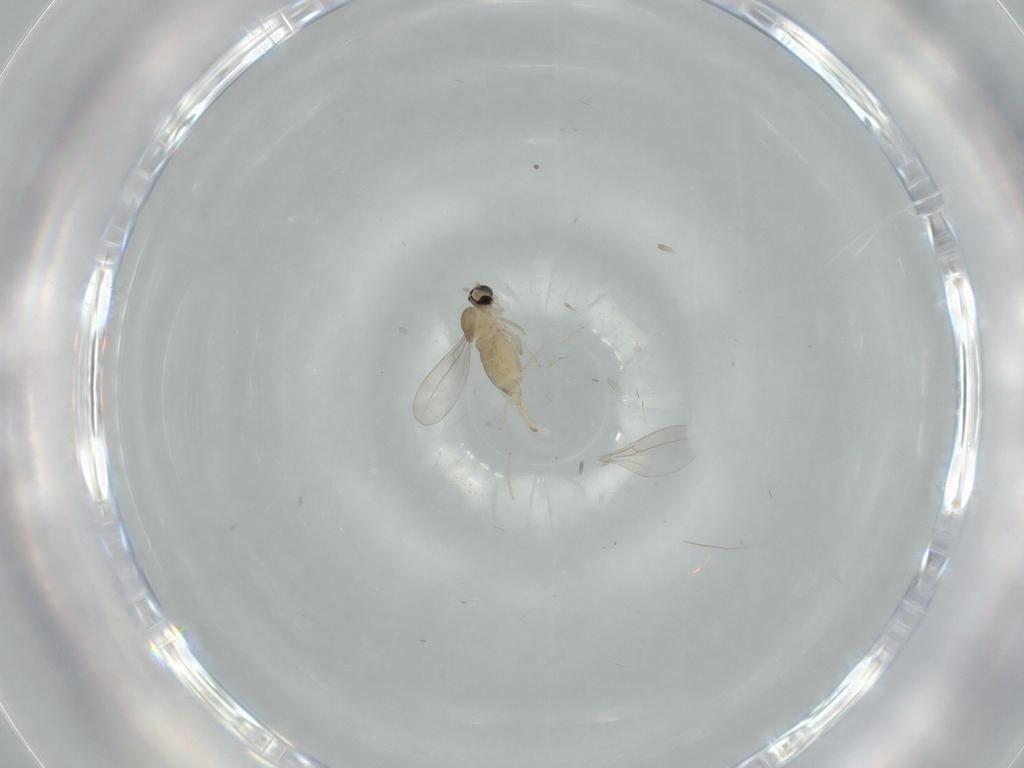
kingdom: Animalia
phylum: Arthropoda
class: Insecta
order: Diptera
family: Cecidomyiidae
